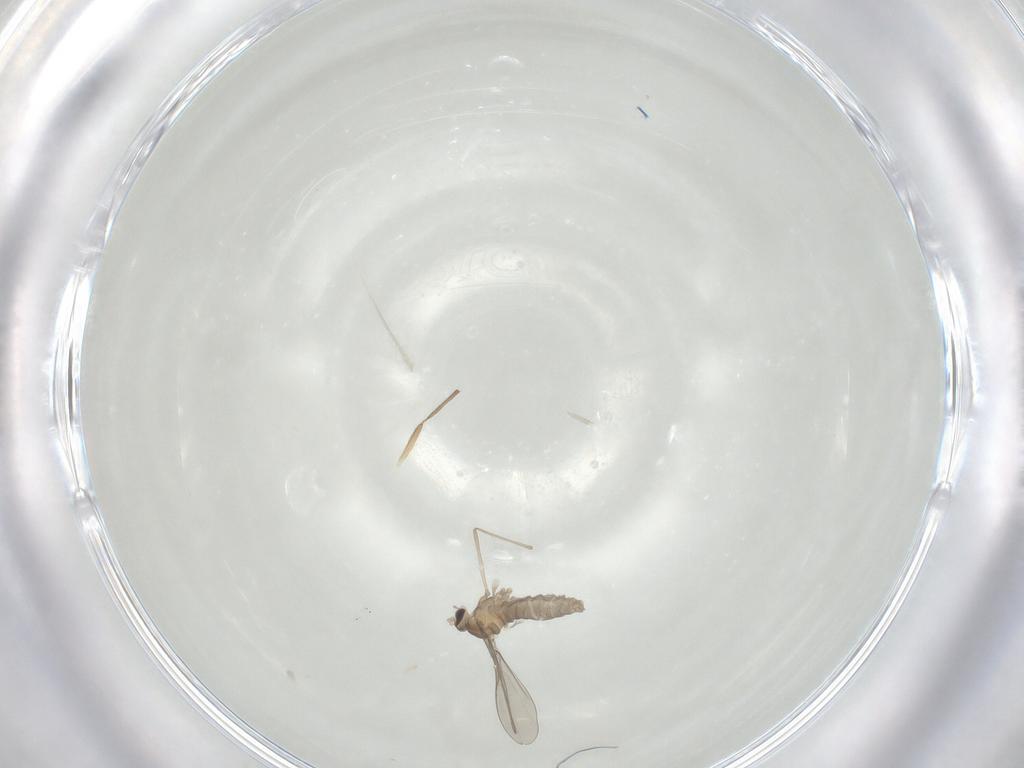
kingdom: Animalia
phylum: Arthropoda
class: Insecta
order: Diptera
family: Cecidomyiidae
